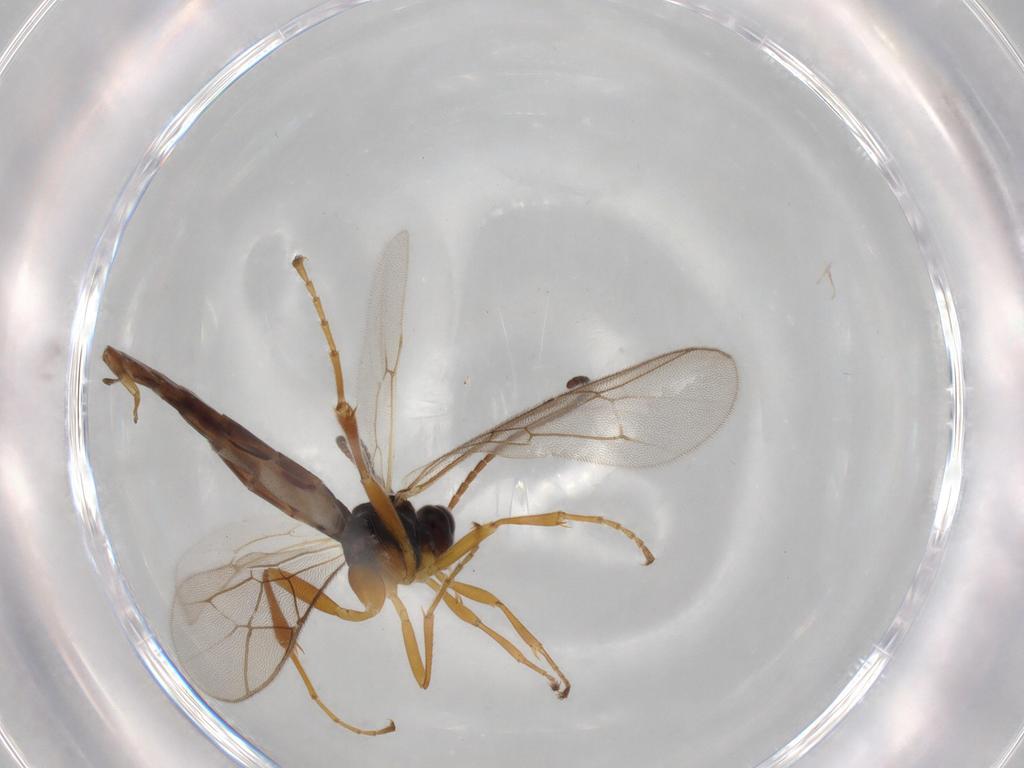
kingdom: Animalia
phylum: Arthropoda
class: Insecta
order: Hymenoptera
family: Ichneumonidae
